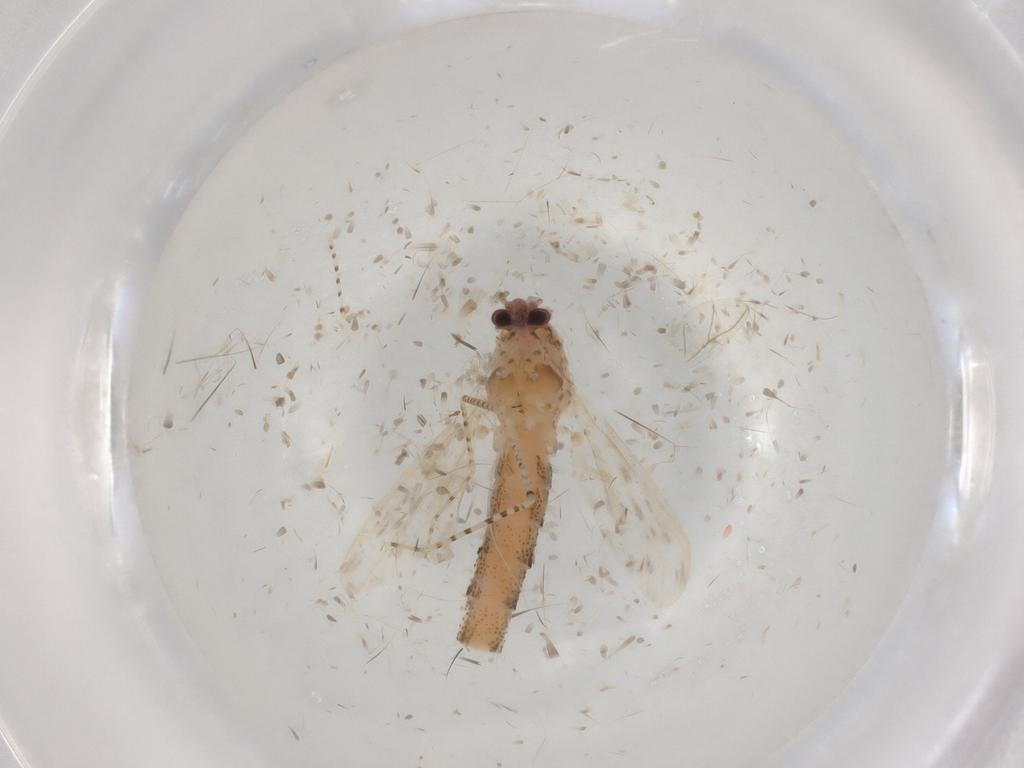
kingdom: Animalia
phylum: Arthropoda
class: Insecta
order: Diptera
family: Chaoboridae
